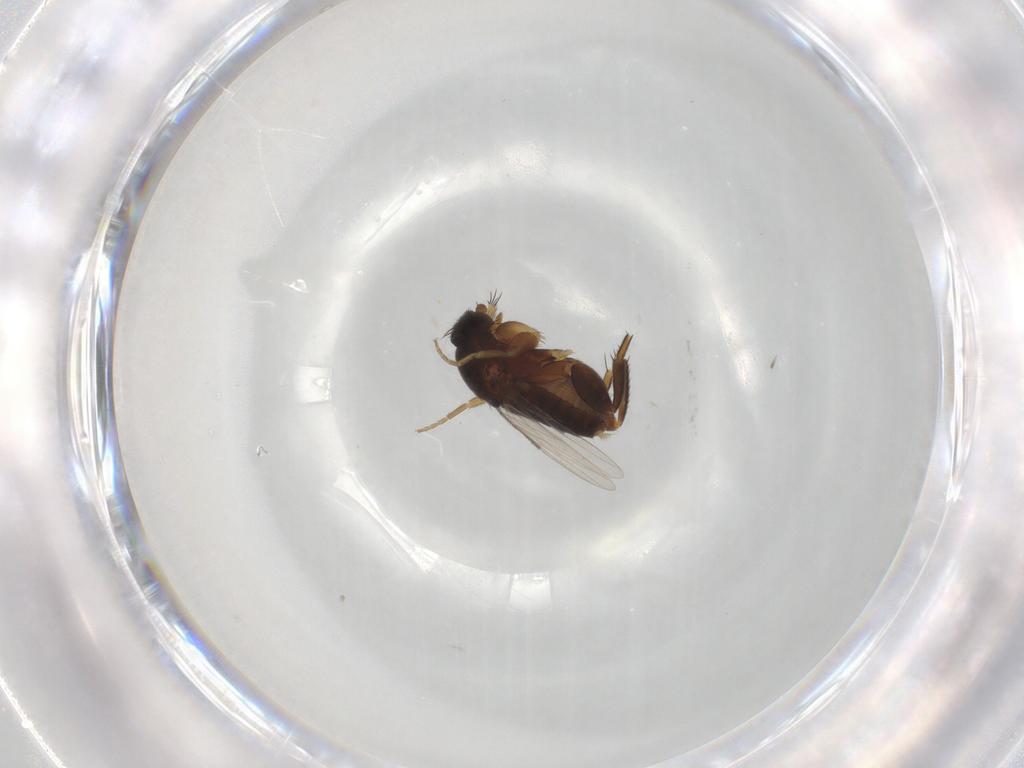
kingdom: Animalia
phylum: Arthropoda
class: Insecta
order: Diptera
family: Phoridae
